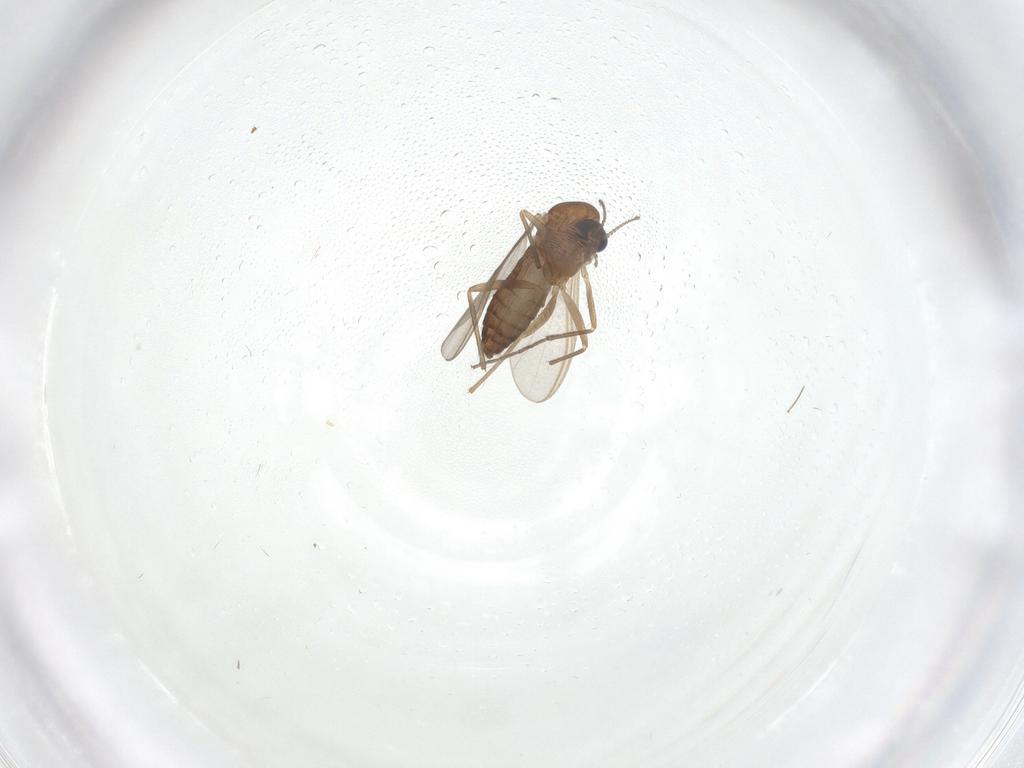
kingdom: Animalia
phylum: Arthropoda
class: Insecta
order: Diptera
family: Chironomidae
